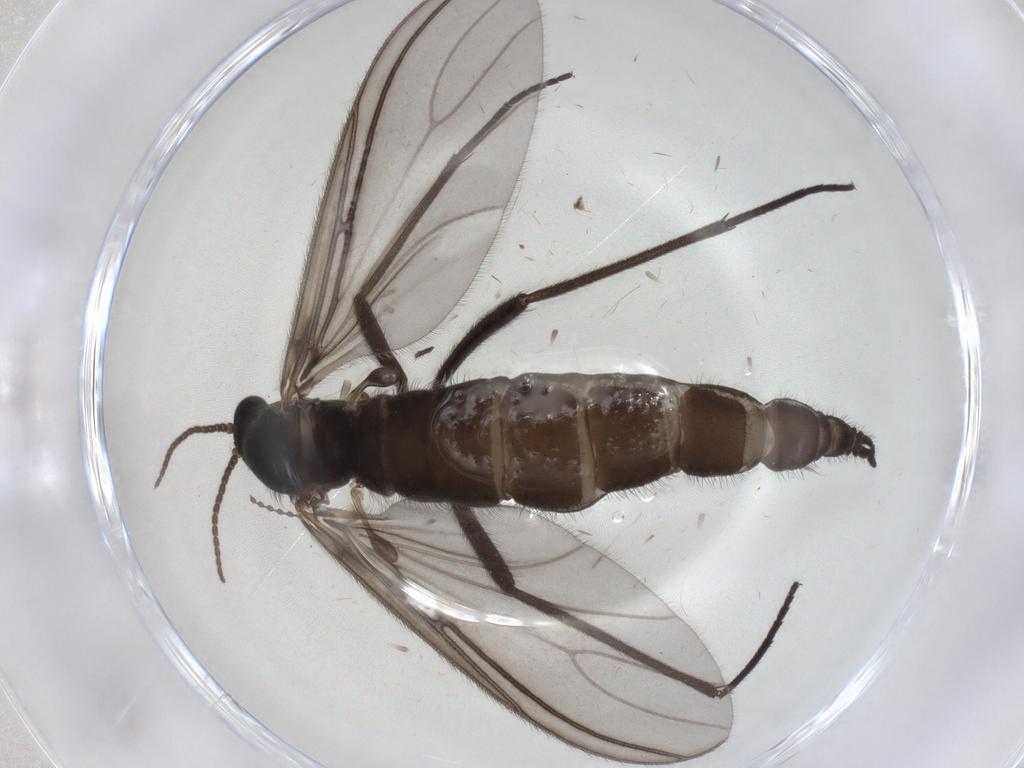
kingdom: Animalia
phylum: Arthropoda
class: Insecta
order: Diptera
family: Sciaridae
